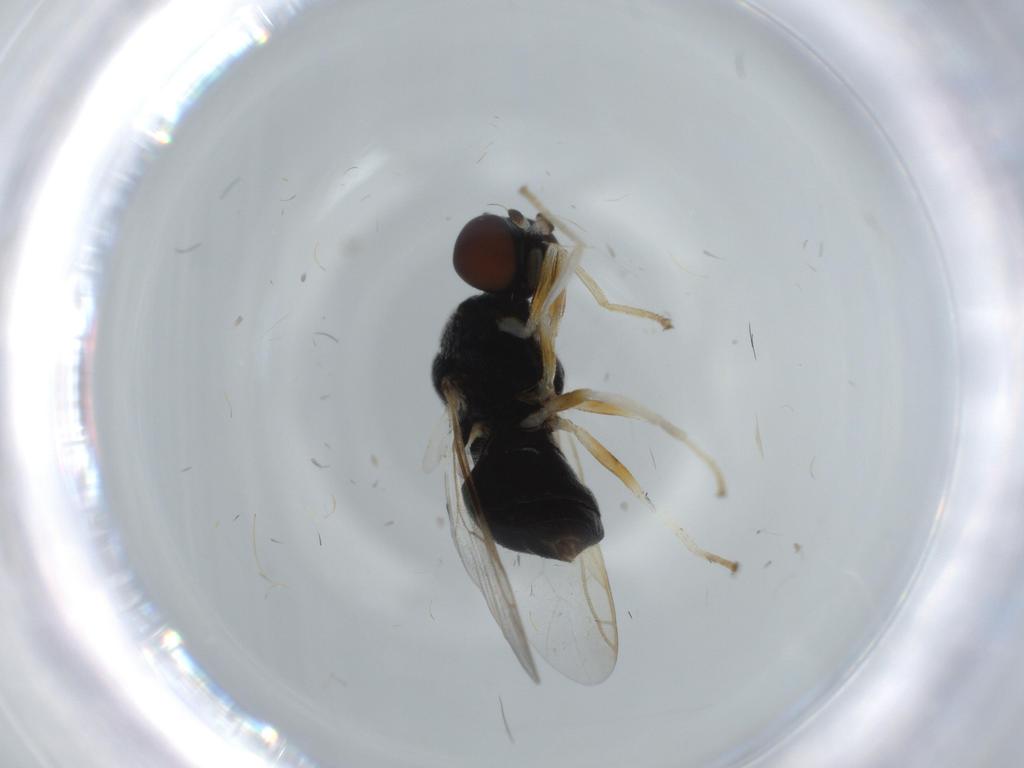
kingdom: Animalia
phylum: Arthropoda
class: Insecta
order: Diptera
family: Stratiomyidae
